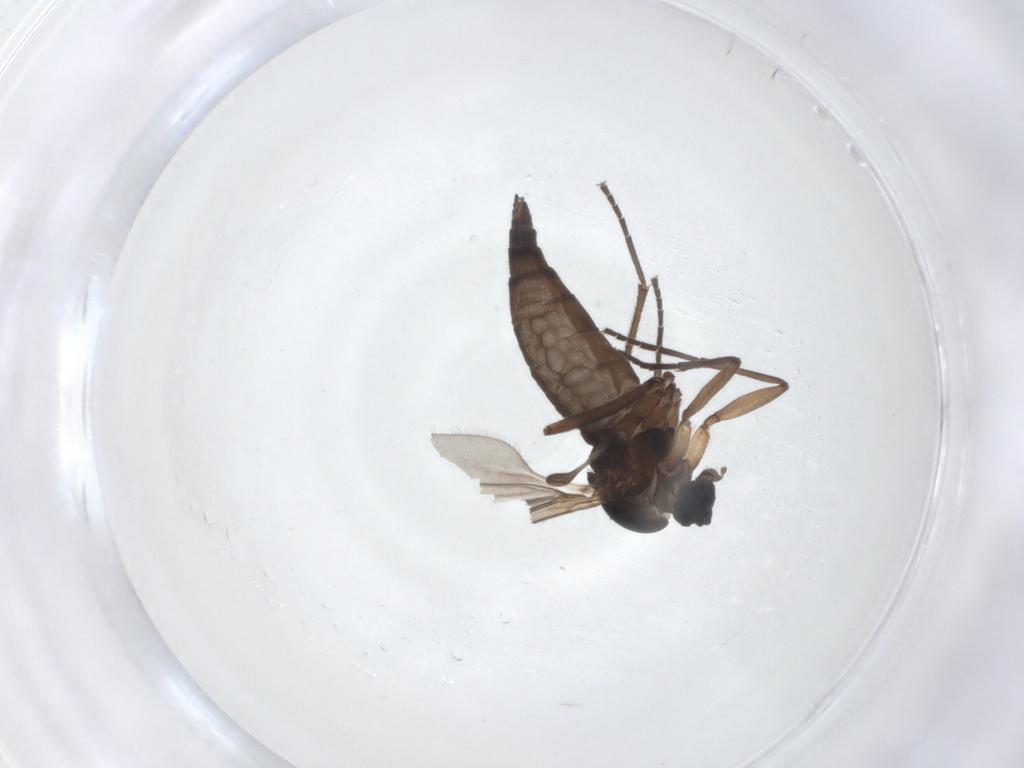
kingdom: Animalia
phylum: Arthropoda
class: Insecta
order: Diptera
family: Sciaridae
